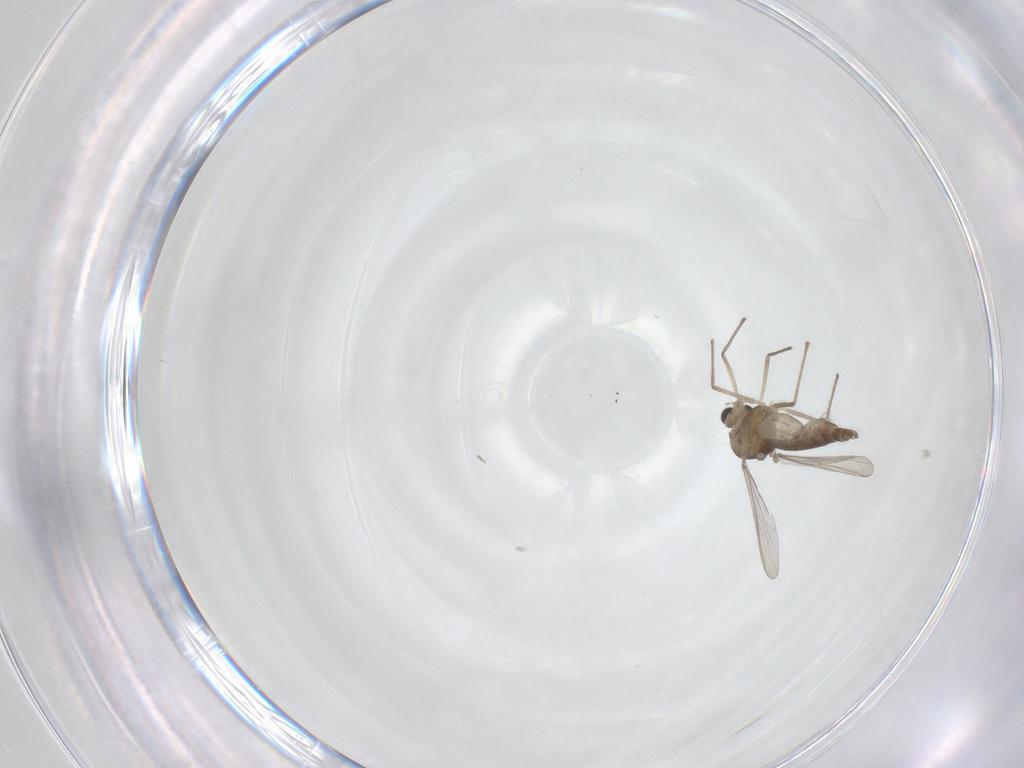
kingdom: Animalia
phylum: Arthropoda
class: Insecta
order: Diptera
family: Chironomidae
